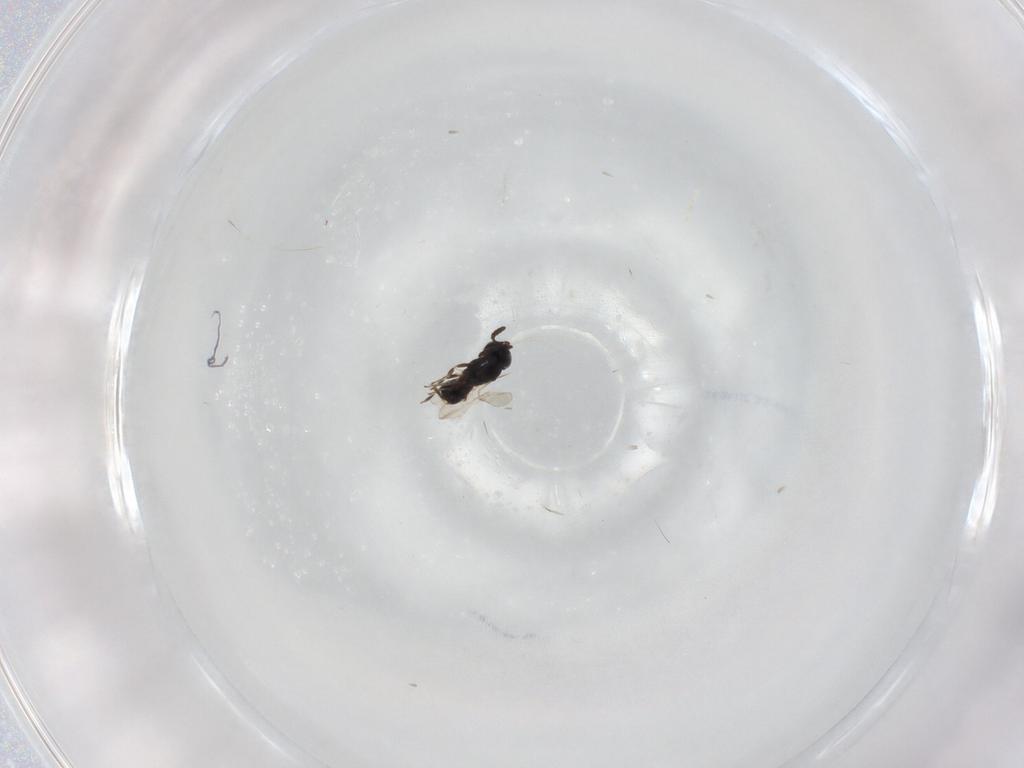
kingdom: Animalia
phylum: Arthropoda
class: Insecta
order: Hymenoptera
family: Scelionidae
